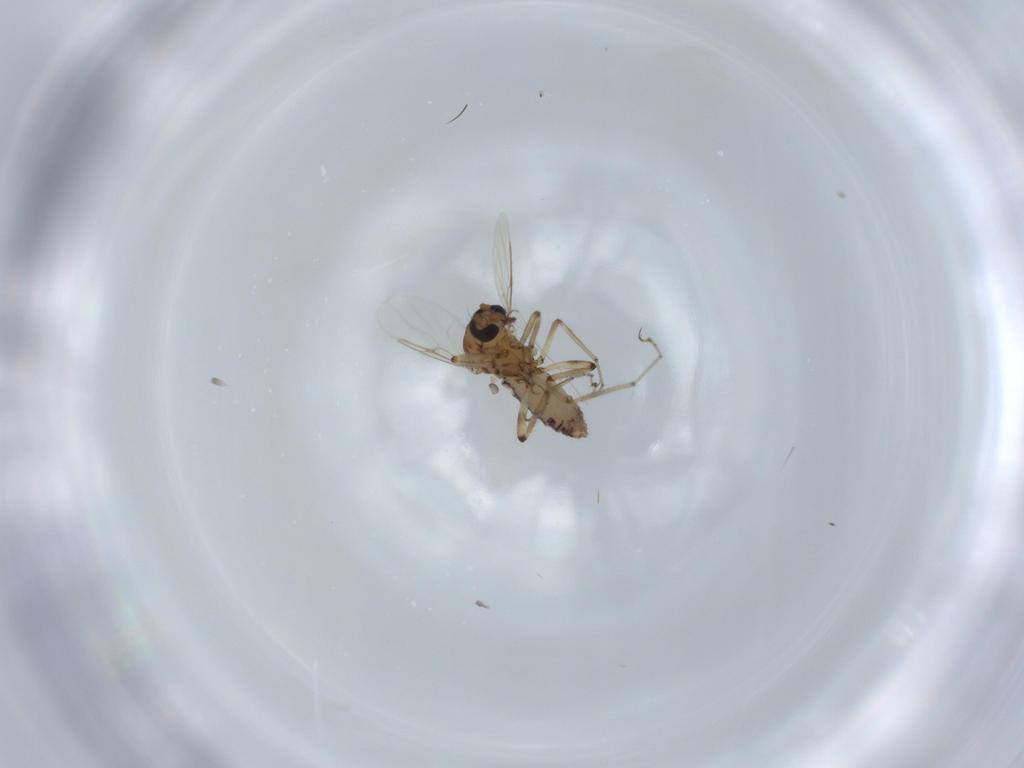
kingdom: Animalia
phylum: Arthropoda
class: Insecta
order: Diptera
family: Ceratopogonidae
